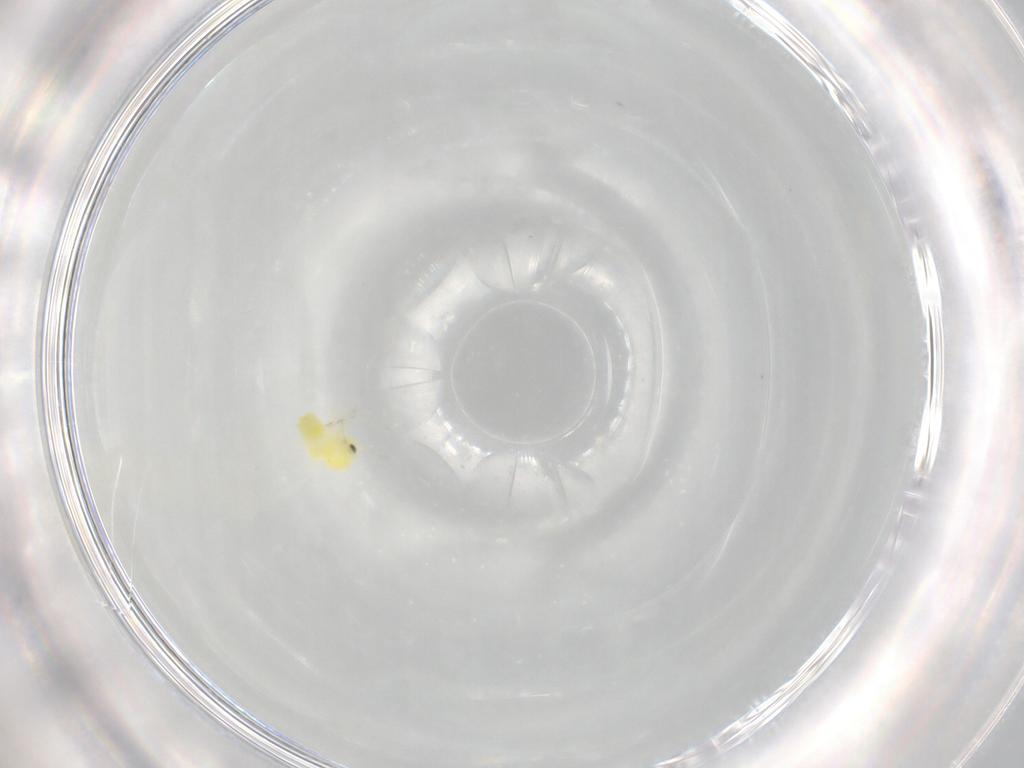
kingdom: Animalia
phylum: Arthropoda
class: Insecta
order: Hemiptera
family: Aleyrodidae
